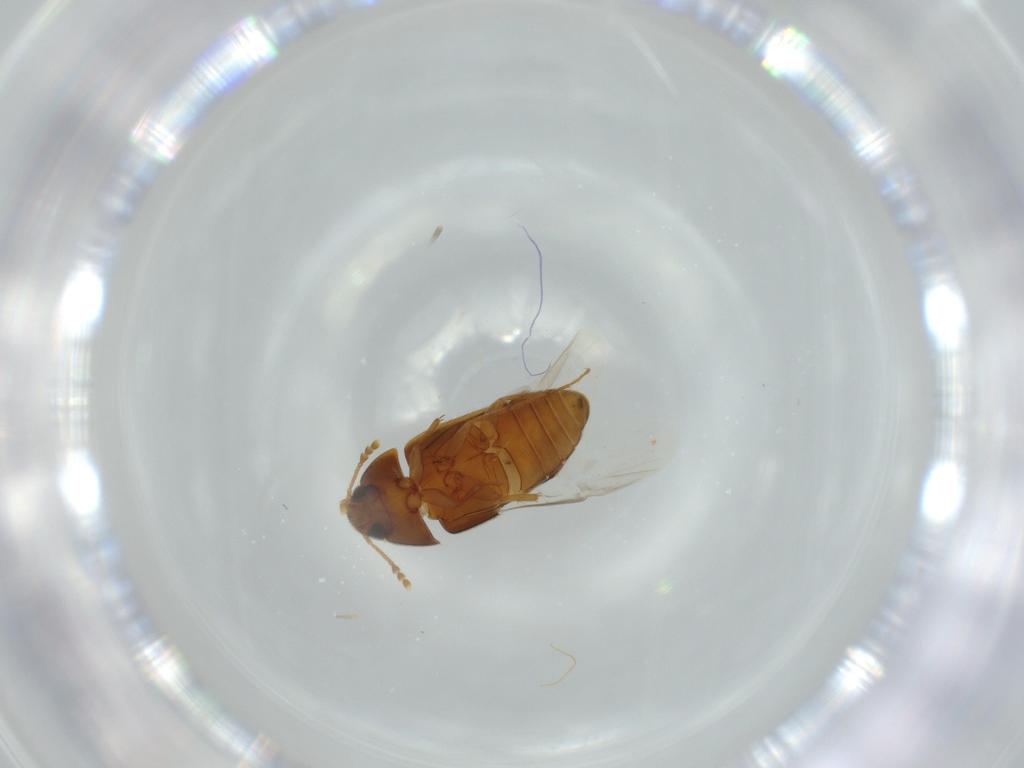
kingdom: Animalia
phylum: Arthropoda
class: Insecta
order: Coleoptera
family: Mycetophagidae
